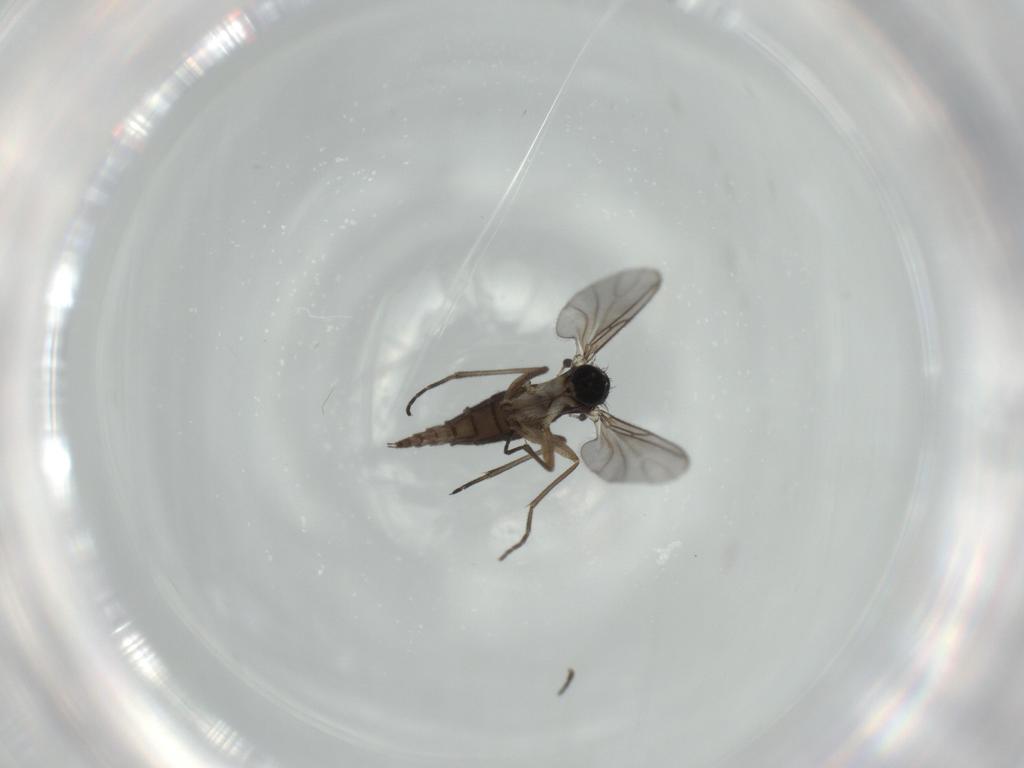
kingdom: Animalia
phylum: Arthropoda
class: Insecta
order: Diptera
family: Sciaridae
